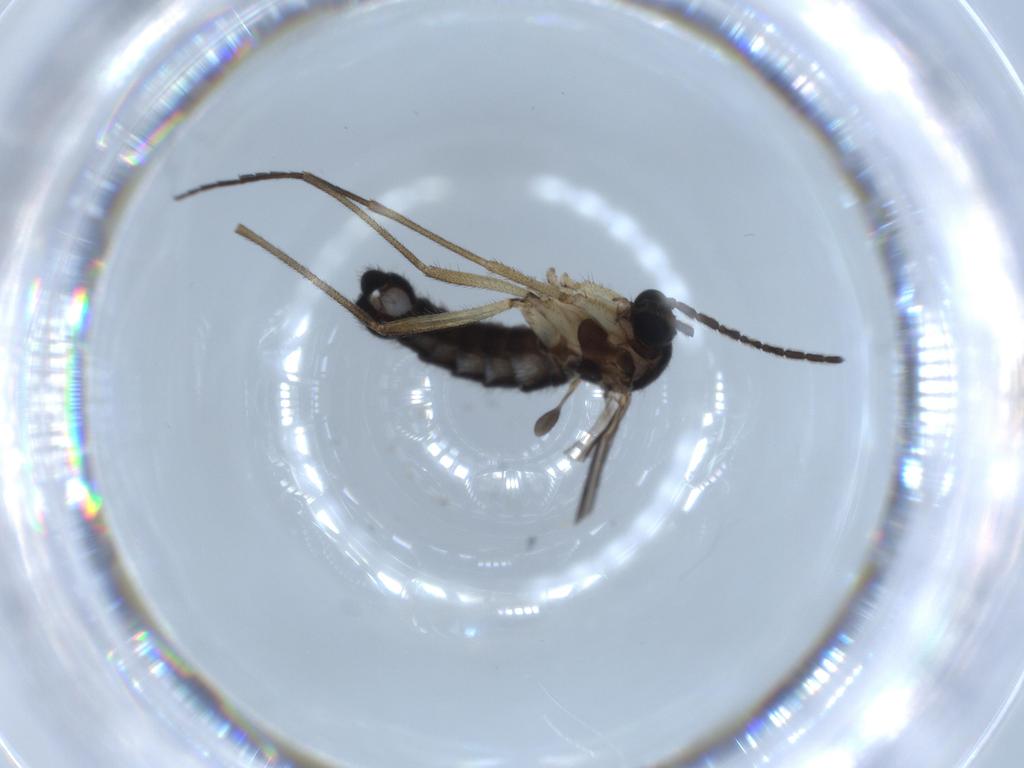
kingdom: Animalia
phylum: Arthropoda
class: Insecta
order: Diptera
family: Sciaridae
